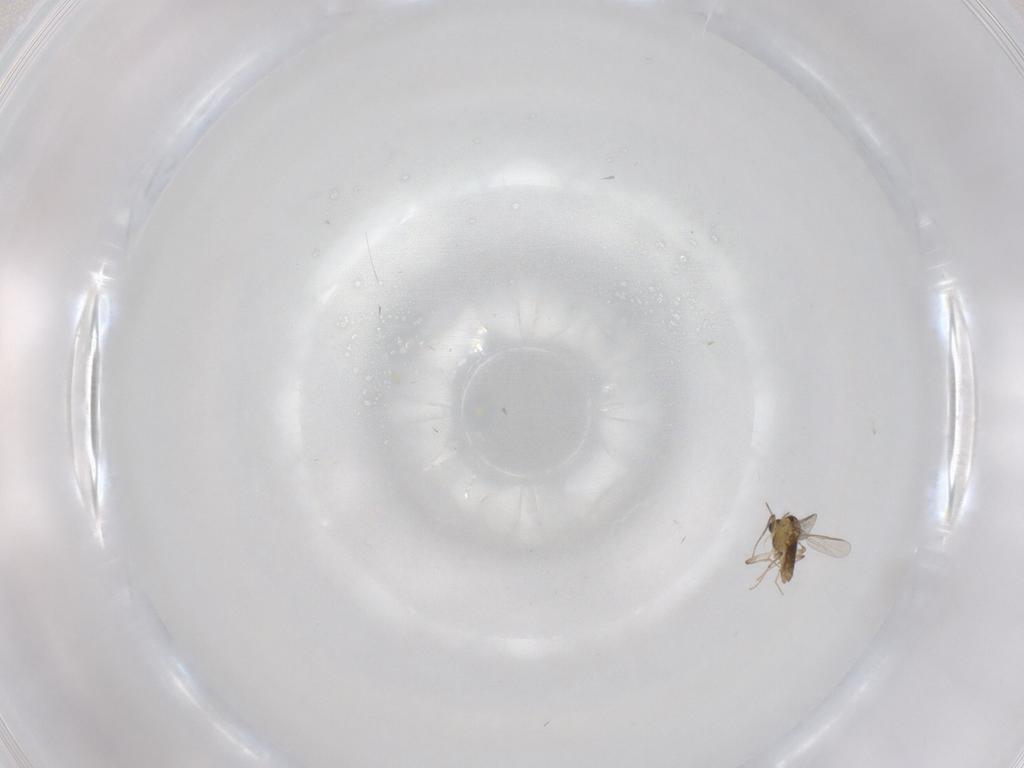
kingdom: Animalia
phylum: Arthropoda
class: Insecta
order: Diptera
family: Chironomidae
